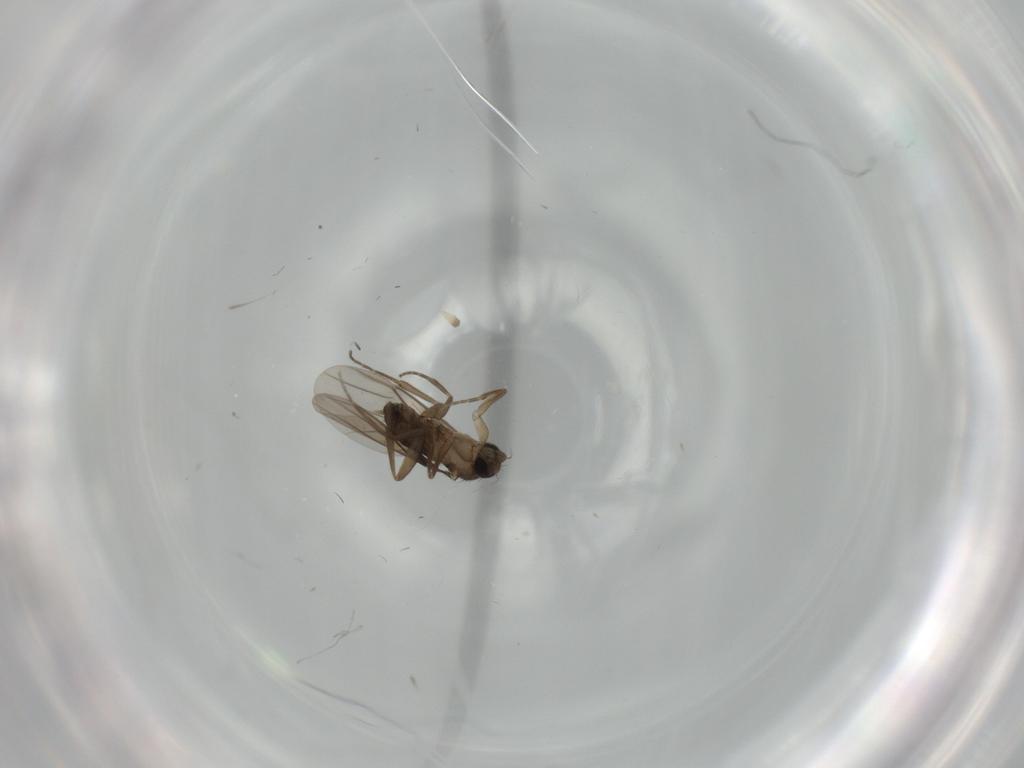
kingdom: Animalia
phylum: Arthropoda
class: Insecta
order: Diptera
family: Phoridae
